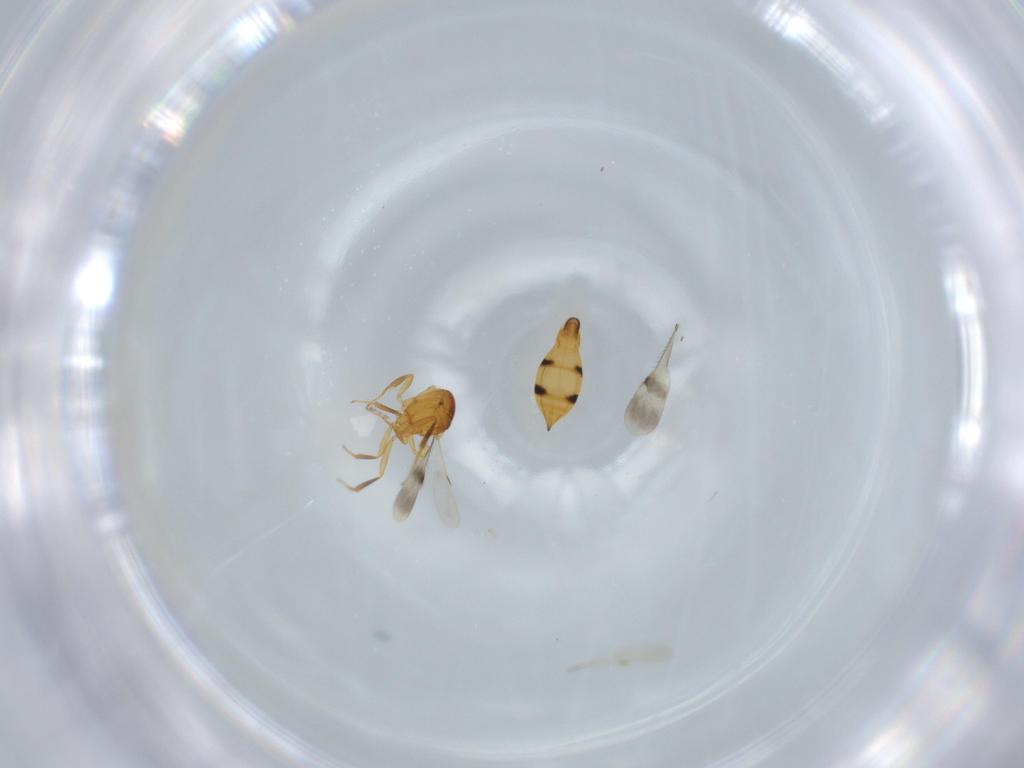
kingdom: Animalia
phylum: Arthropoda
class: Insecta
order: Hymenoptera
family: Scelionidae
